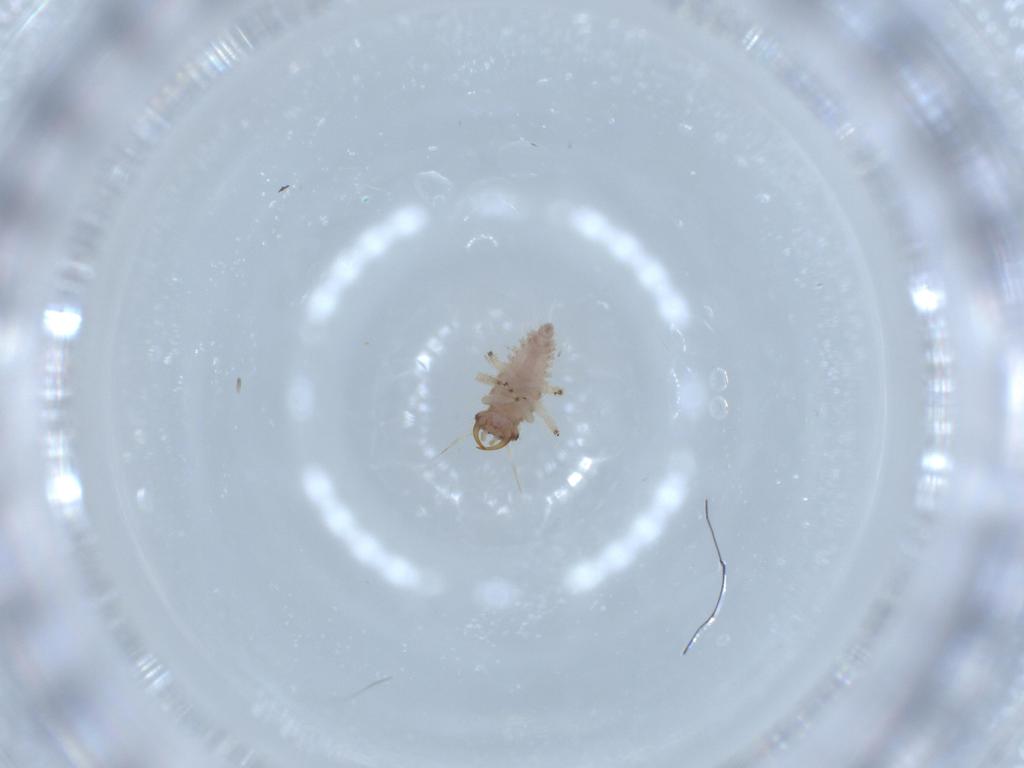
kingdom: Animalia
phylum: Arthropoda
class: Insecta
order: Neuroptera
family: Chrysopidae
